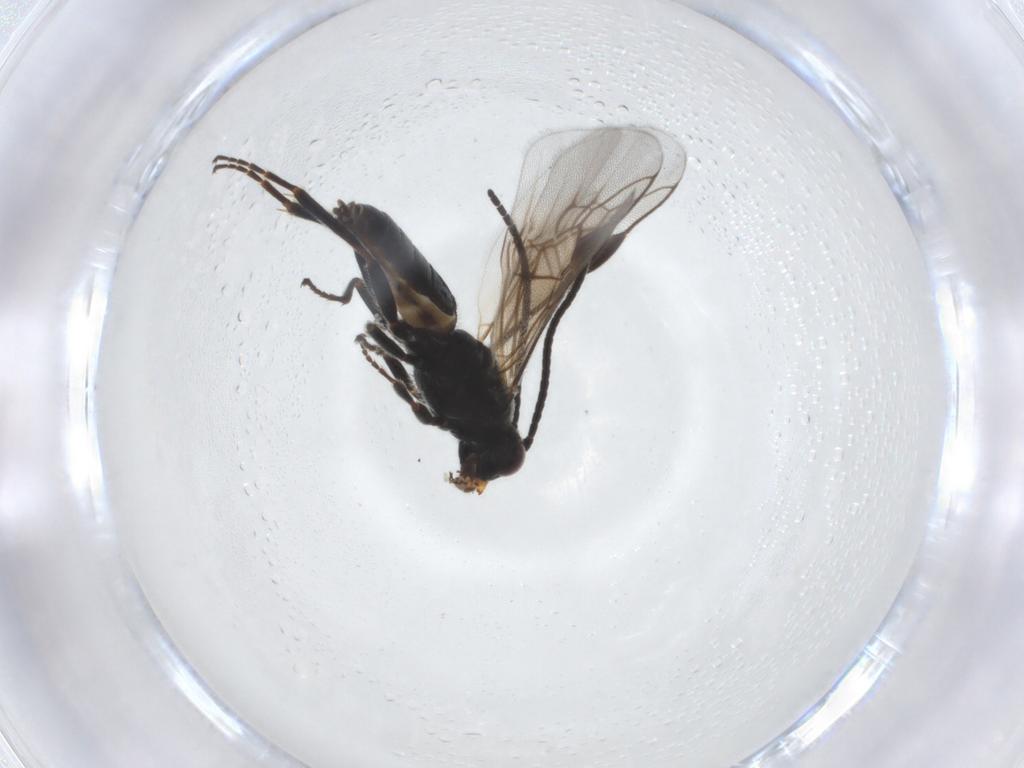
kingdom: Animalia
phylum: Arthropoda
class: Insecta
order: Hymenoptera
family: Braconidae
